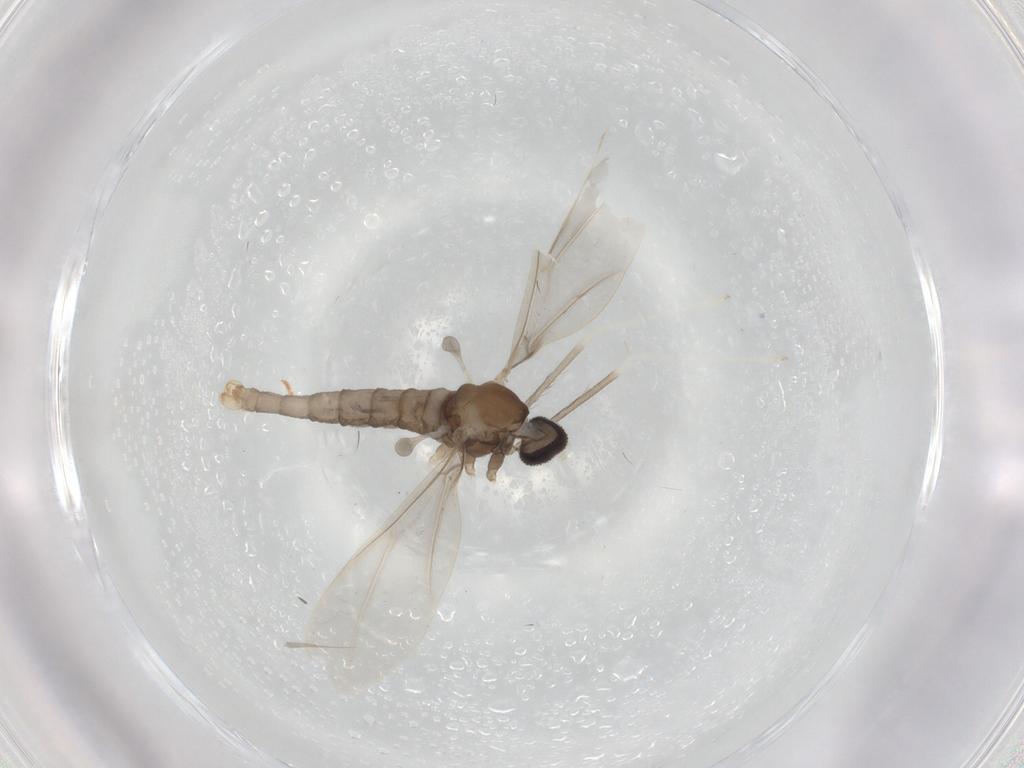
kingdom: Animalia
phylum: Arthropoda
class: Insecta
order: Diptera
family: Cecidomyiidae
